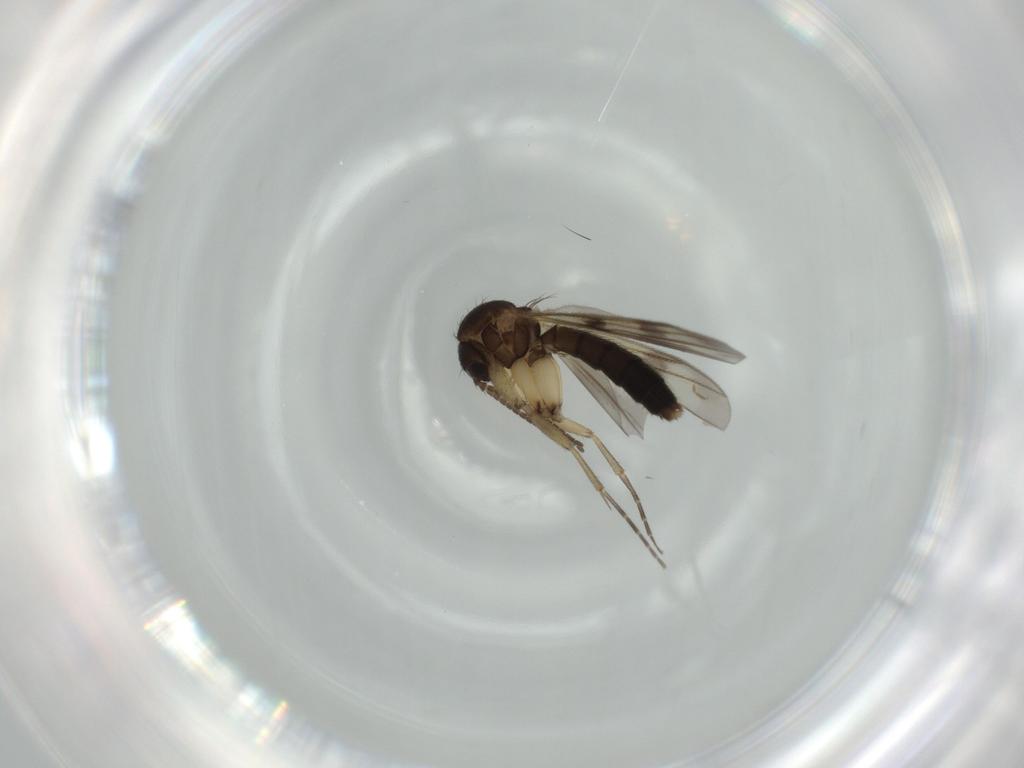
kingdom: Animalia
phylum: Arthropoda
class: Insecta
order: Diptera
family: Mycetophilidae
